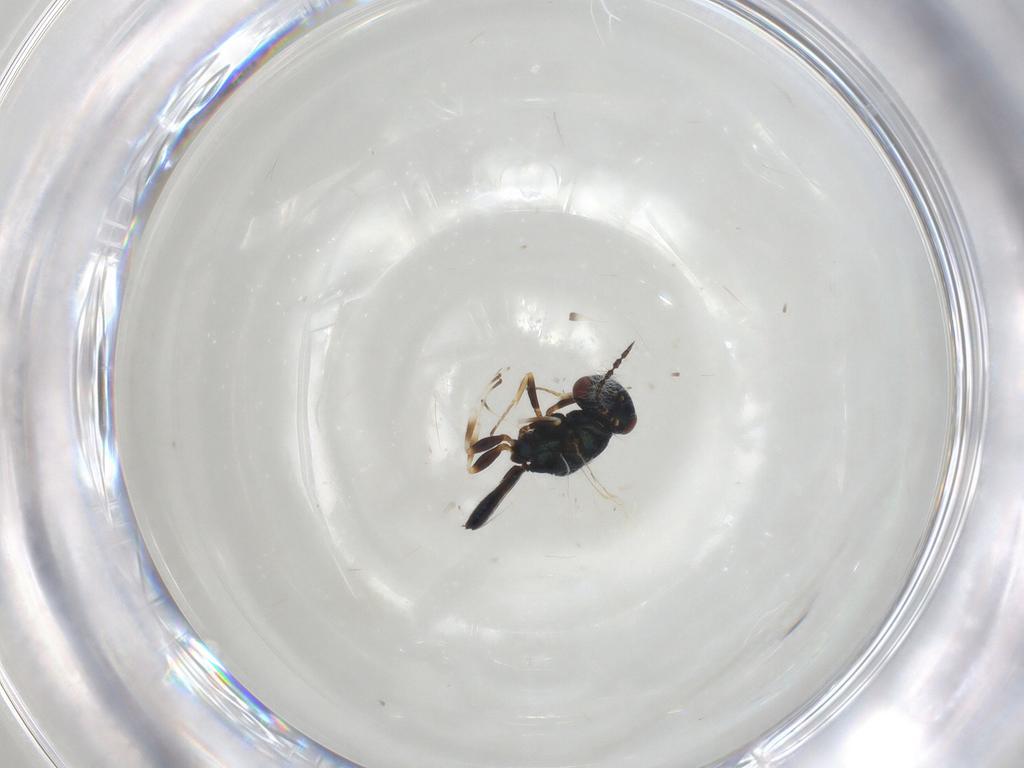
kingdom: Animalia
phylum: Arthropoda
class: Insecta
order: Hymenoptera
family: Pteromalidae
